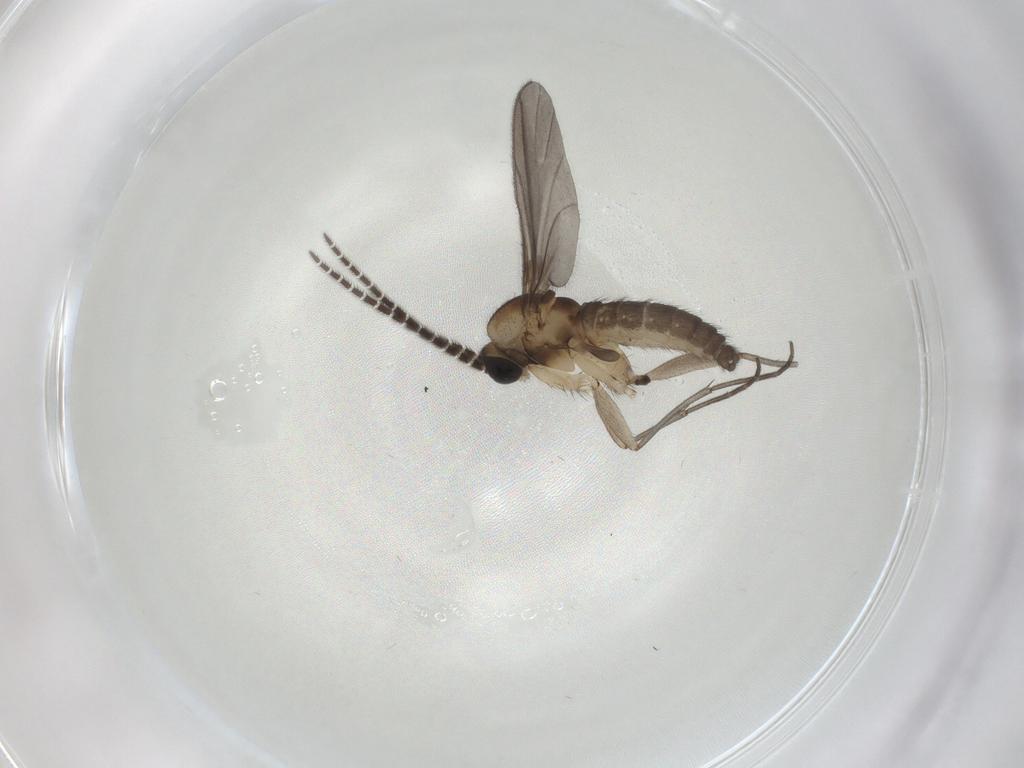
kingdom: Animalia
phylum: Arthropoda
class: Insecta
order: Diptera
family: Sciaridae
